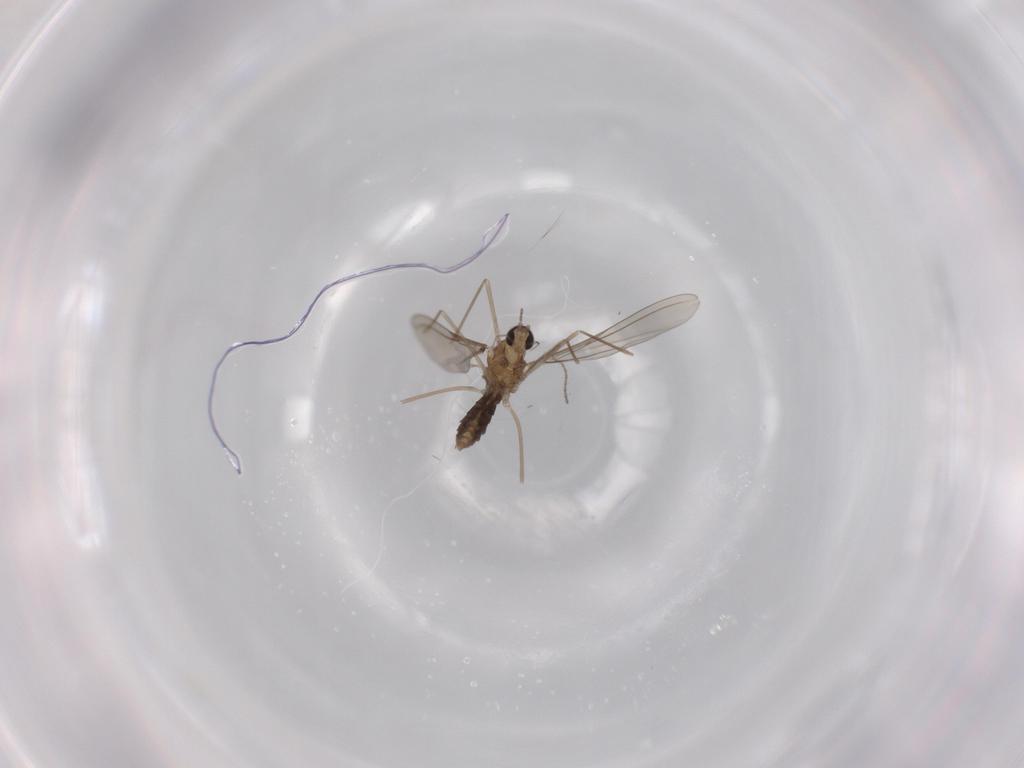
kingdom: Animalia
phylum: Arthropoda
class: Insecta
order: Diptera
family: Cecidomyiidae
